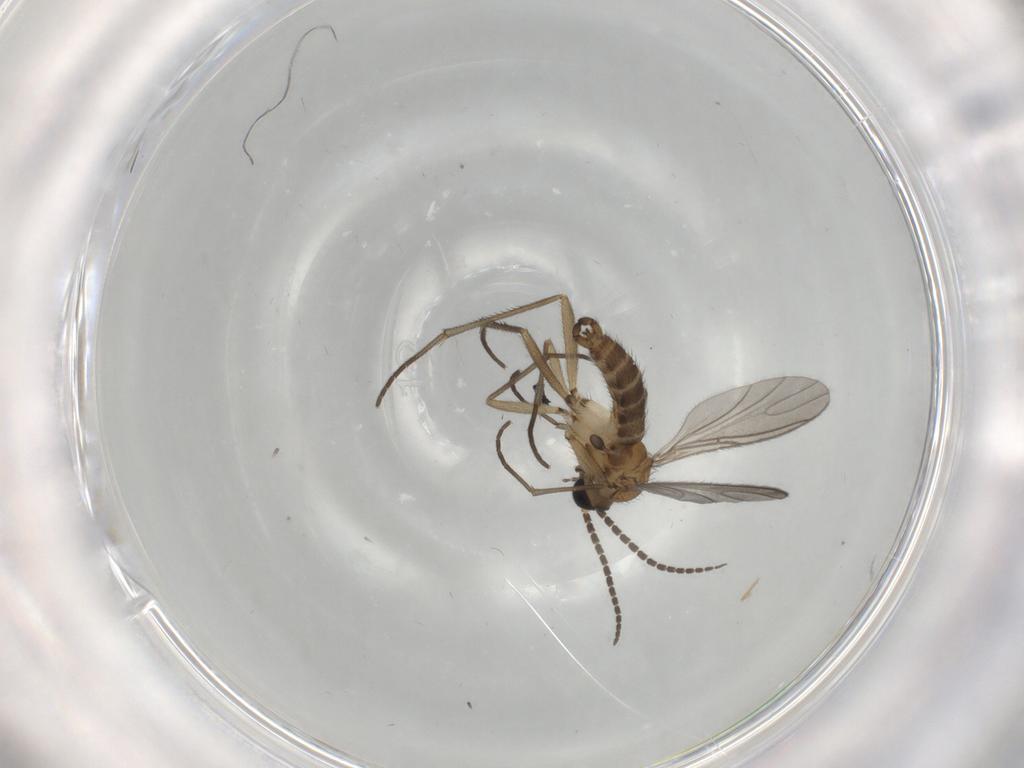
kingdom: Animalia
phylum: Arthropoda
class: Insecta
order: Diptera
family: Sciaridae
